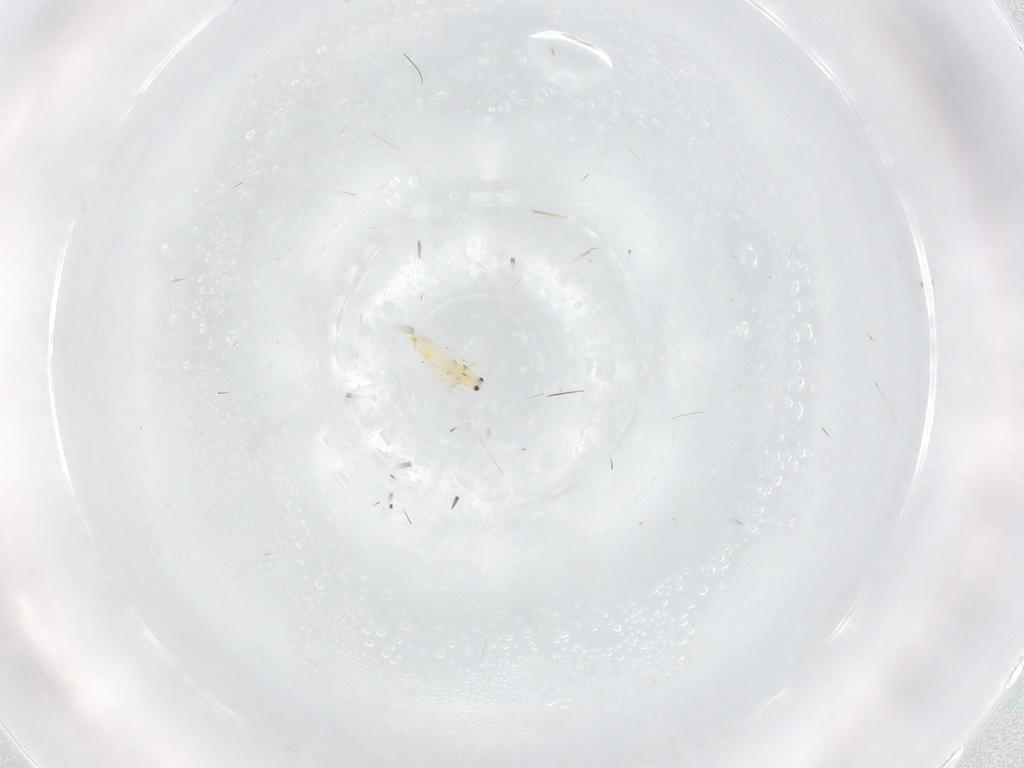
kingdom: Animalia
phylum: Arthropoda
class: Insecta
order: Thysanoptera
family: Thripidae
